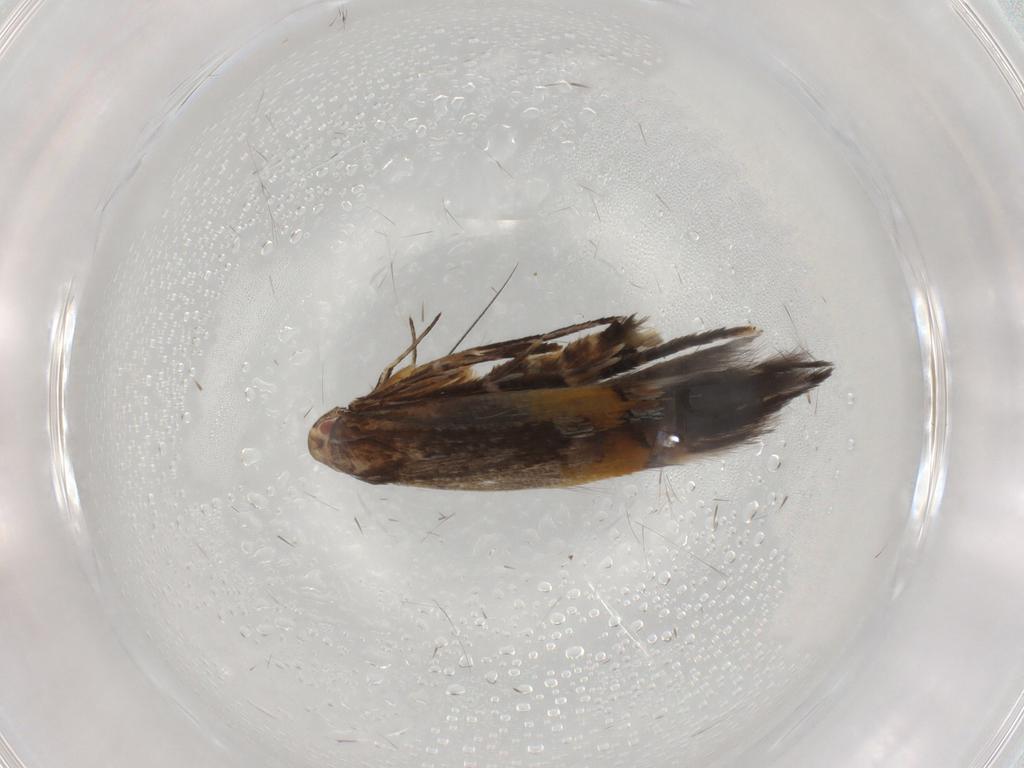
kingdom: Animalia
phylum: Arthropoda
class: Insecta
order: Lepidoptera
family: Cosmopterigidae
